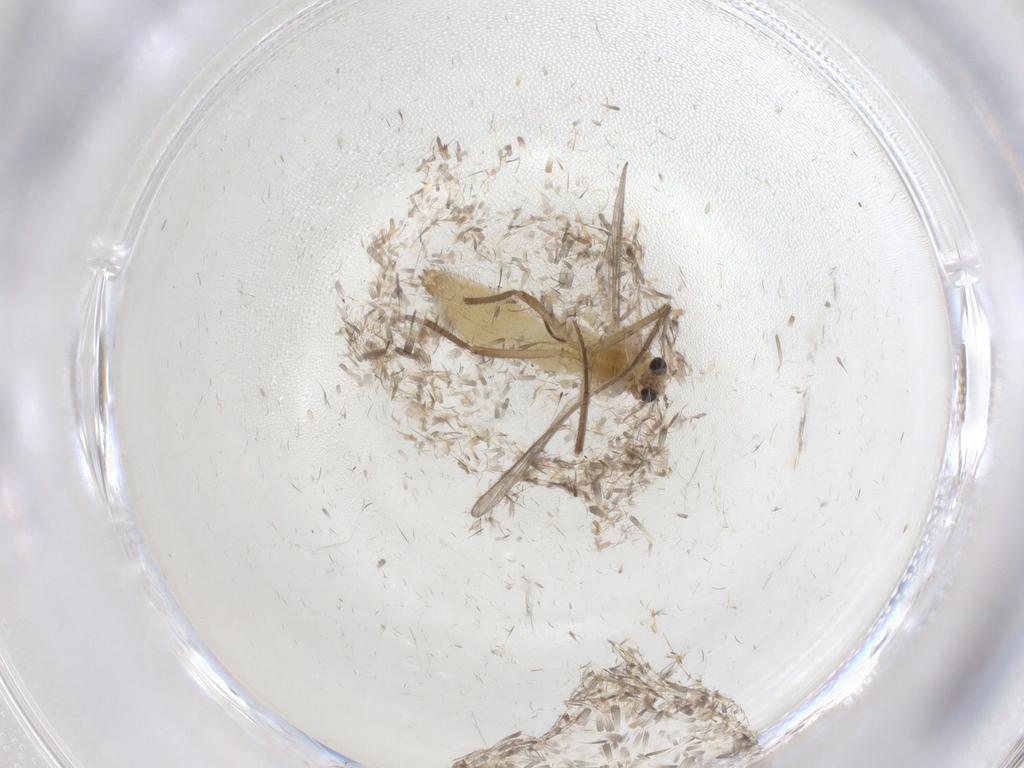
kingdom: Animalia
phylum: Arthropoda
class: Insecta
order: Diptera
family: Chironomidae
